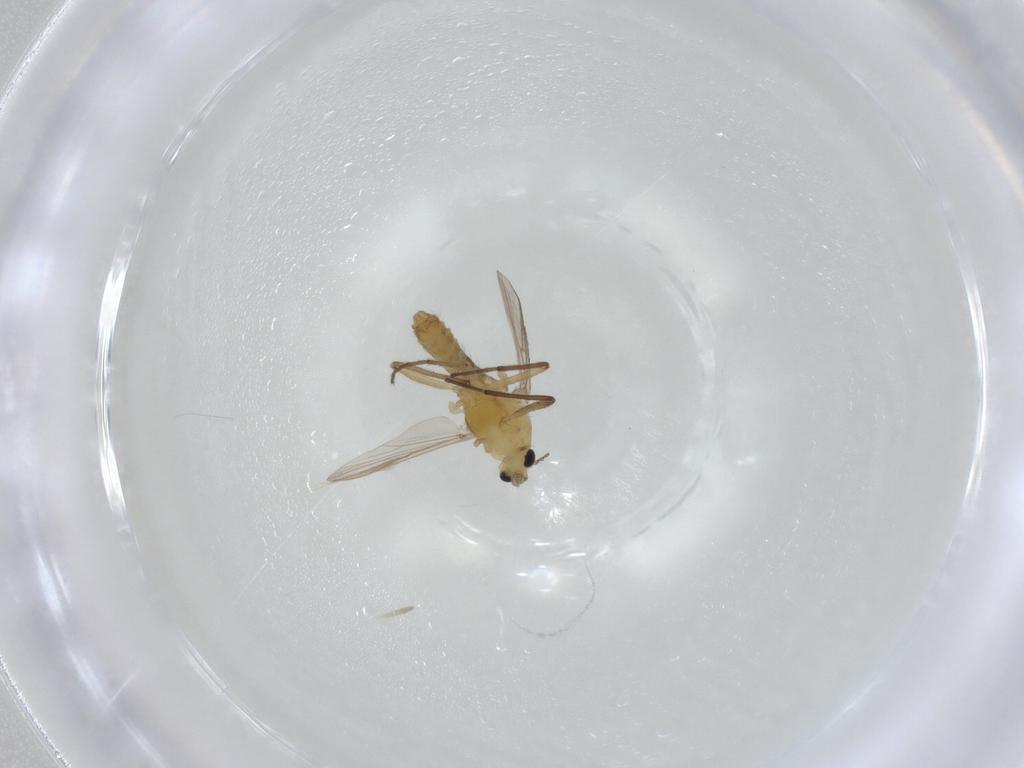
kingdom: Animalia
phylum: Arthropoda
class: Insecta
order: Diptera
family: Chironomidae
